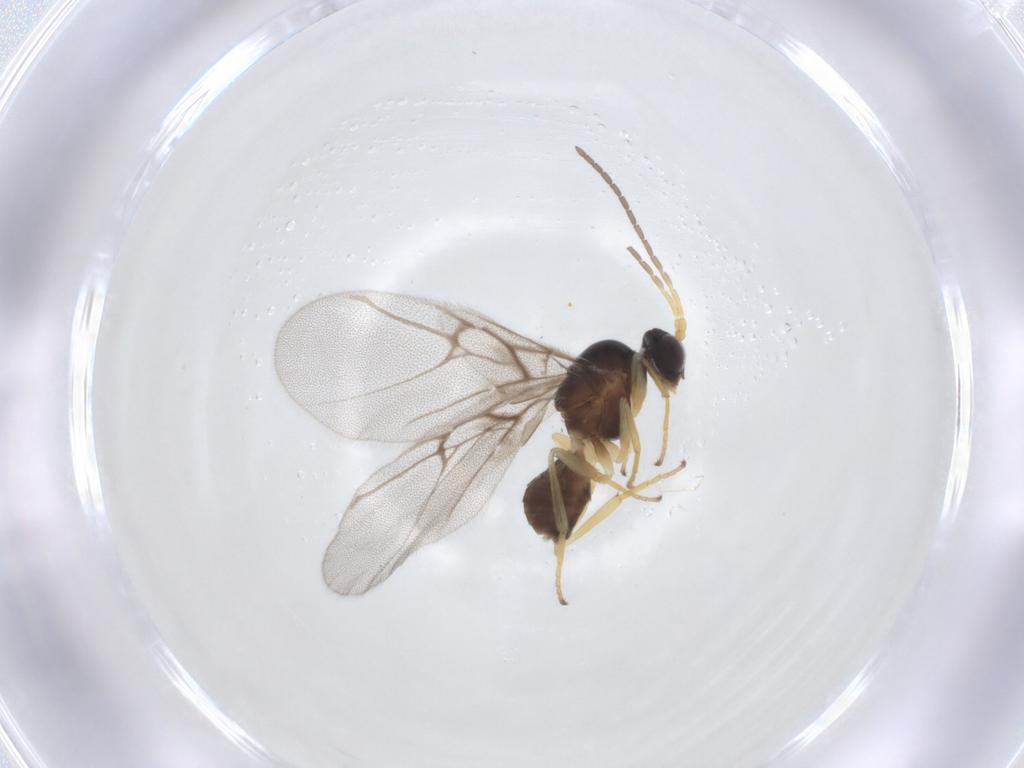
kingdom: Animalia
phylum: Arthropoda
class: Insecta
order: Hymenoptera
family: Cynipidae
